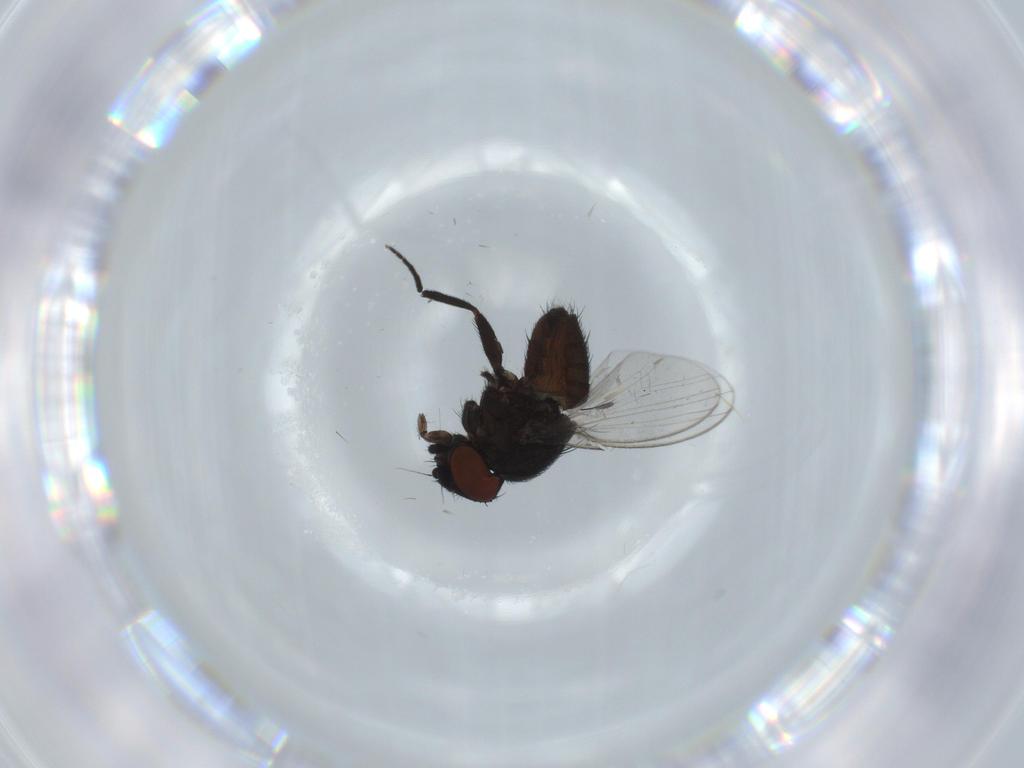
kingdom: Animalia
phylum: Arthropoda
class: Insecta
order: Diptera
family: Milichiidae
